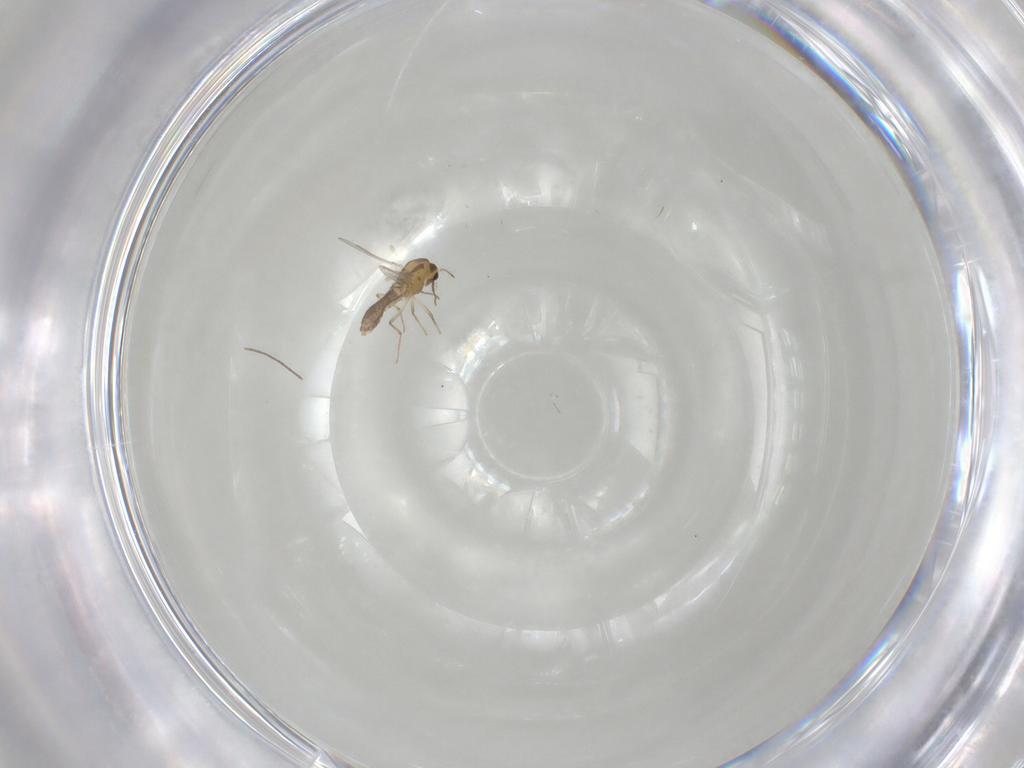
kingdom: Animalia
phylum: Arthropoda
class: Insecta
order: Diptera
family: Chironomidae
